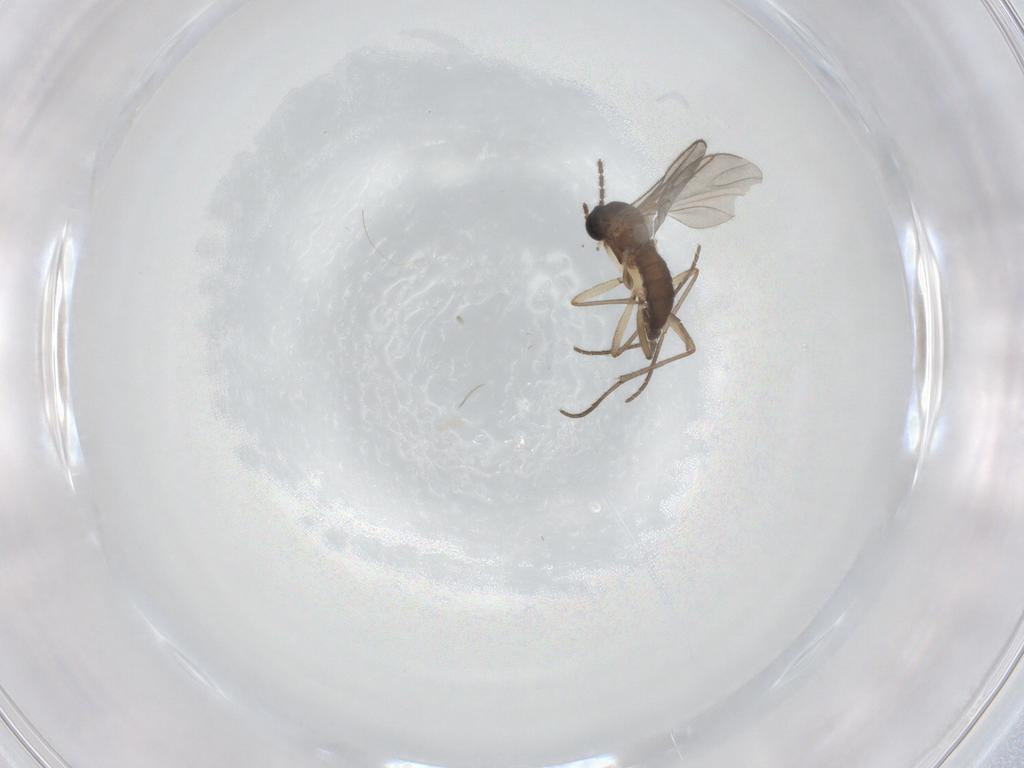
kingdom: Animalia
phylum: Arthropoda
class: Insecta
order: Diptera
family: Sciaridae
